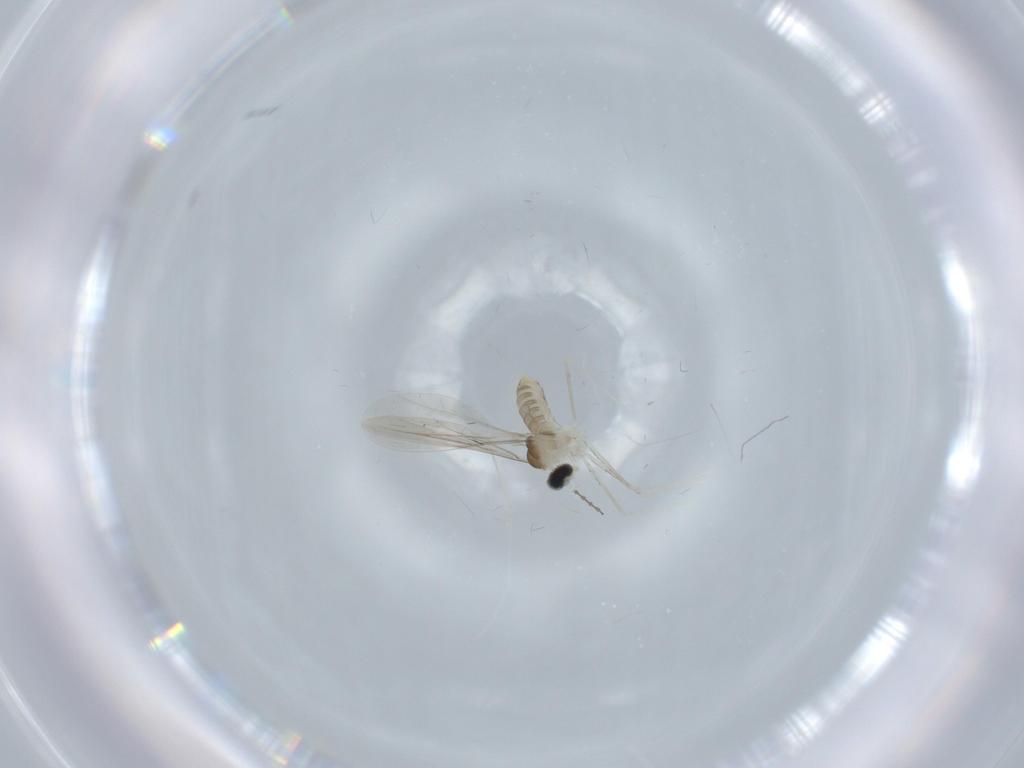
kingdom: Animalia
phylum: Arthropoda
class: Insecta
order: Diptera
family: Cecidomyiidae
